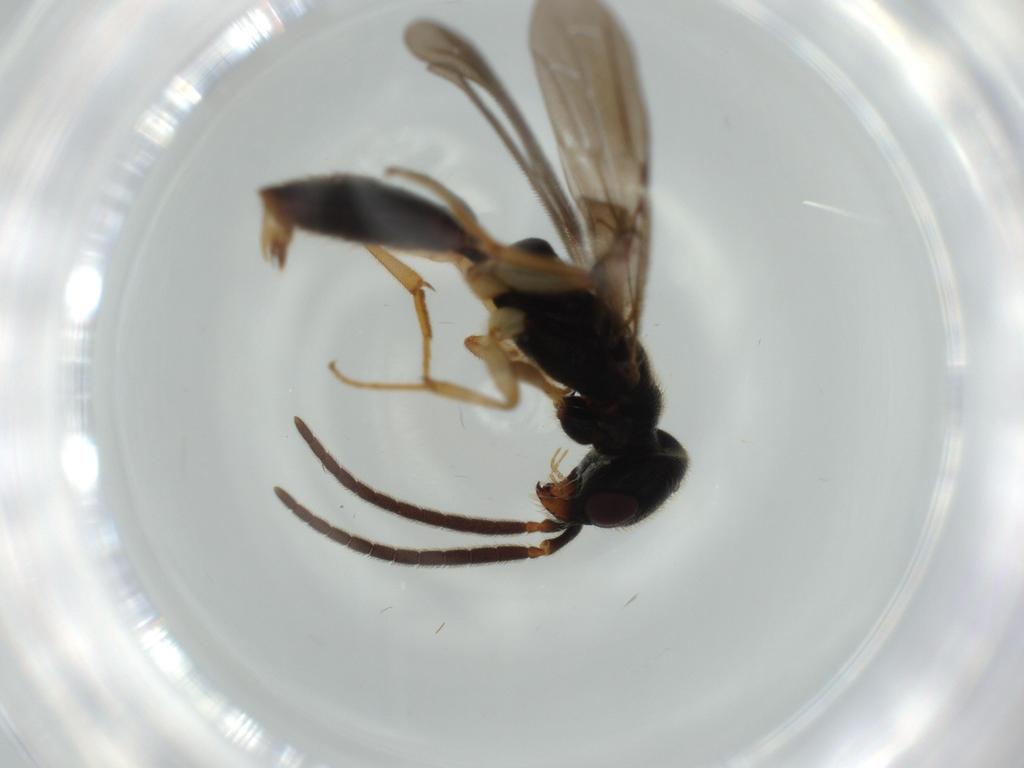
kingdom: Animalia
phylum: Arthropoda
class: Insecta
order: Hymenoptera
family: Bethylidae
